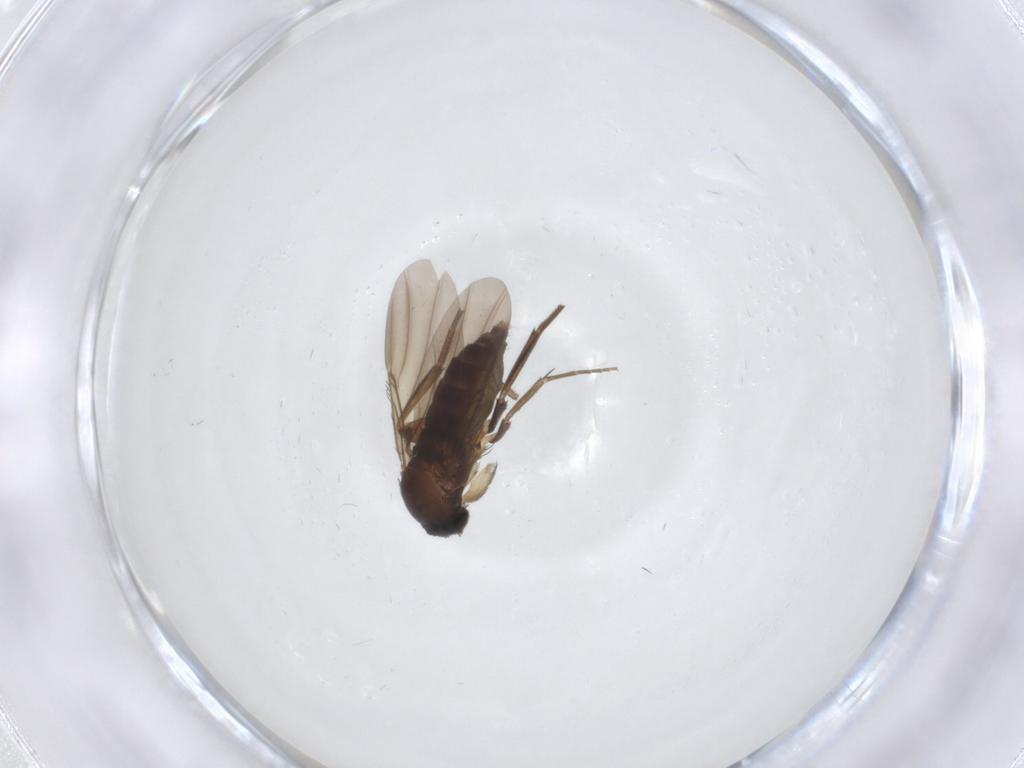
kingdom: Animalia
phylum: Arthropoda
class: Insecta
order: Diptera
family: Phoridae
